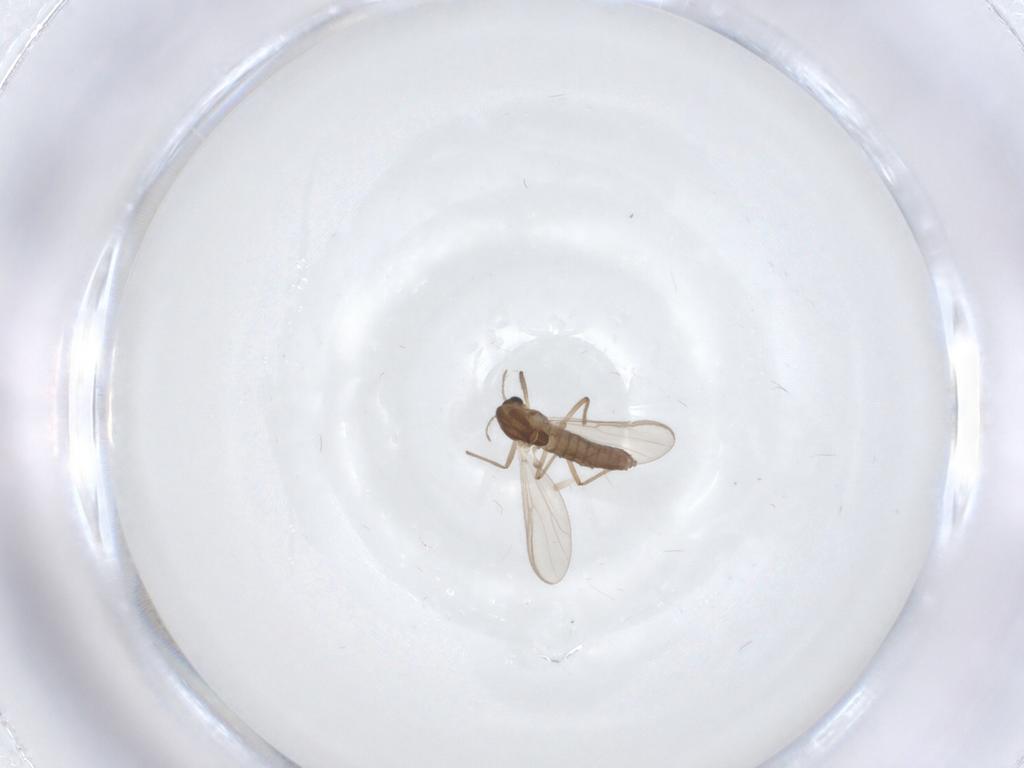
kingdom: Animalia
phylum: Arthropoda
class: Insecta
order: Diptera
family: Chironomidae
